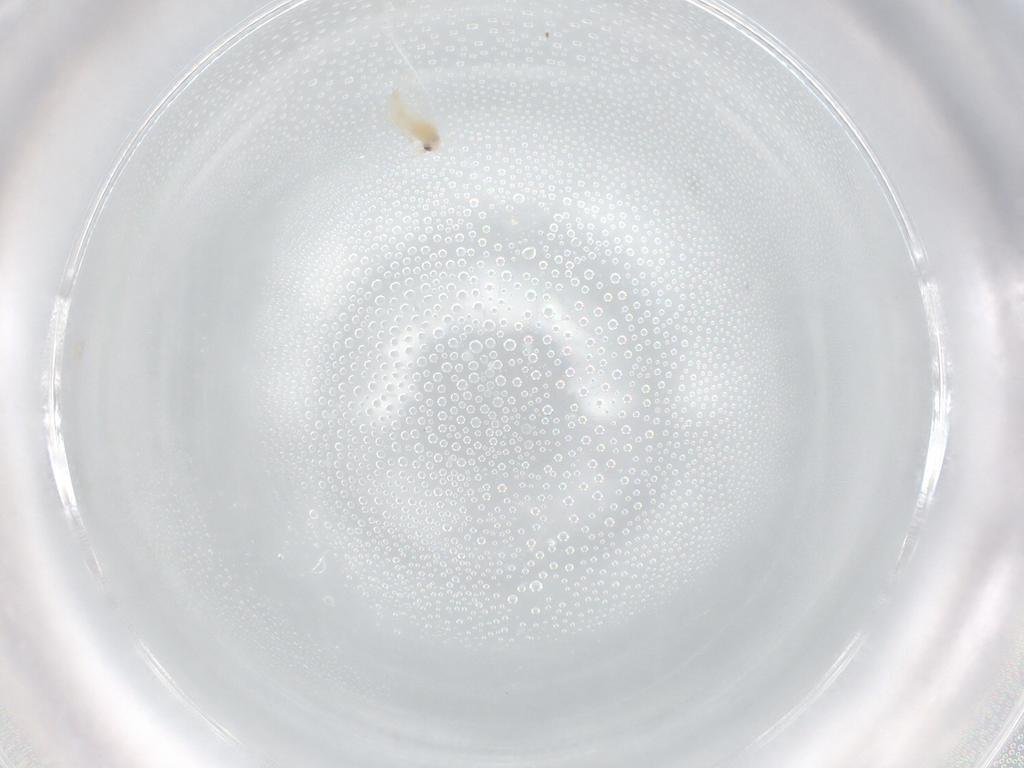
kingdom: Animalia
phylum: Arthropoda
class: Insecta
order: Hemiptera
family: Aleyrodidae
